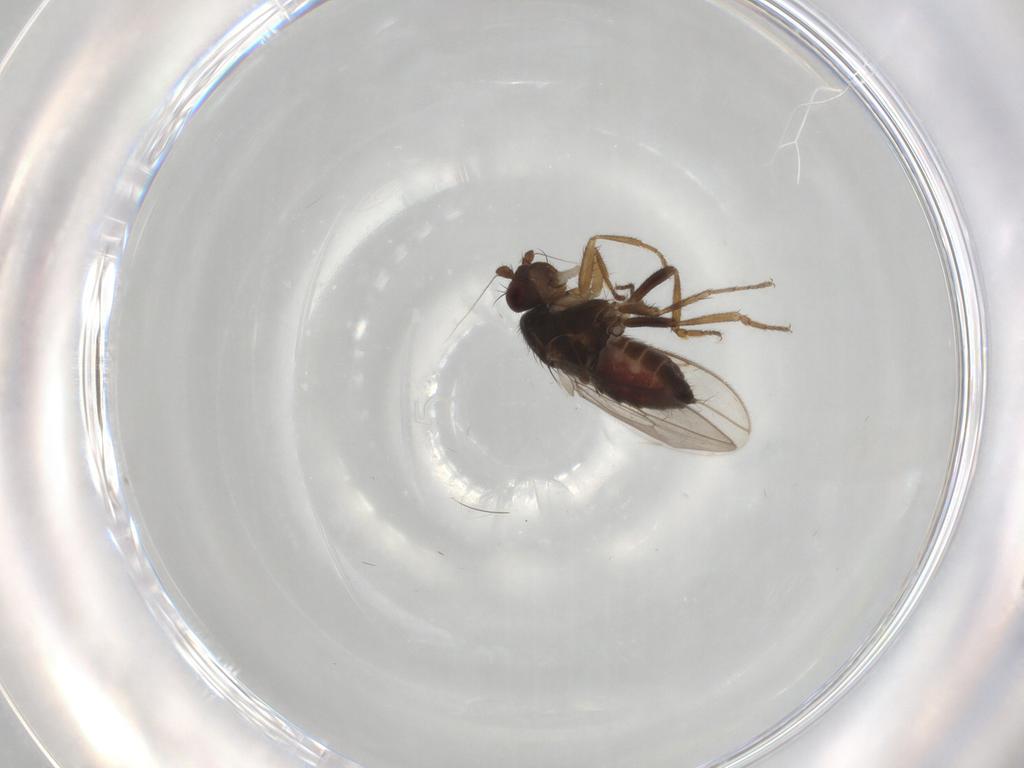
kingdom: Animalia
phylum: Arthropoda
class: Insecta
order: Diptera
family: Sphaeroceridae
